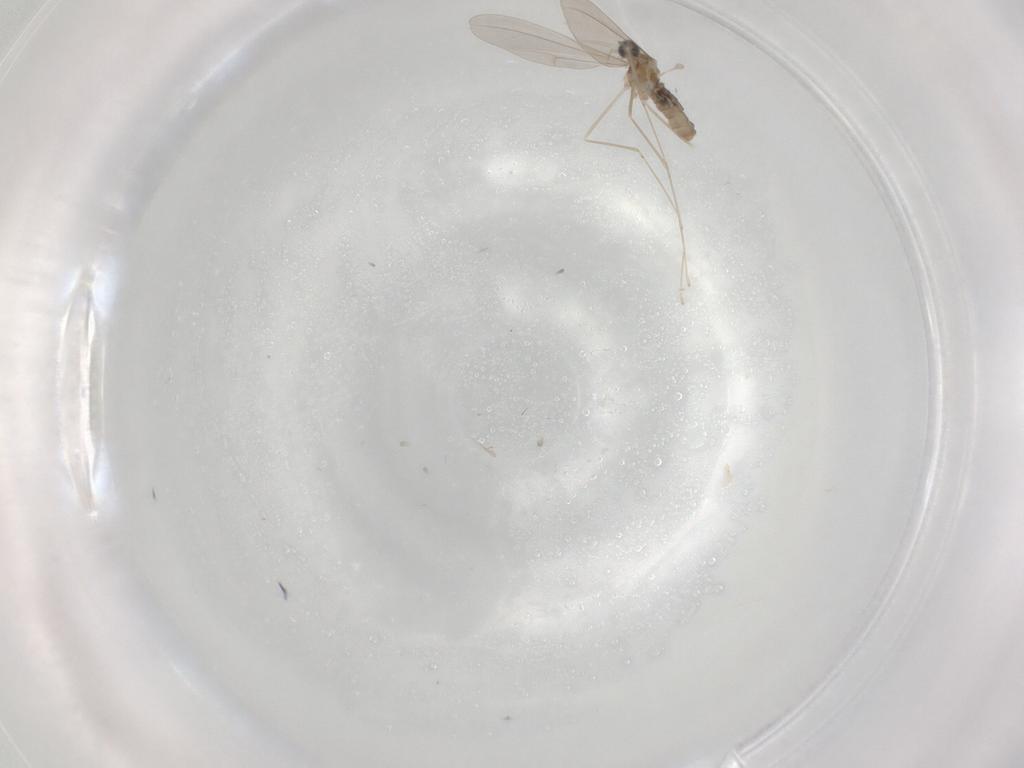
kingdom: Animalia
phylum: Arthropoda
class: Insecta
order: Diptera
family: Cecidomyiidae
